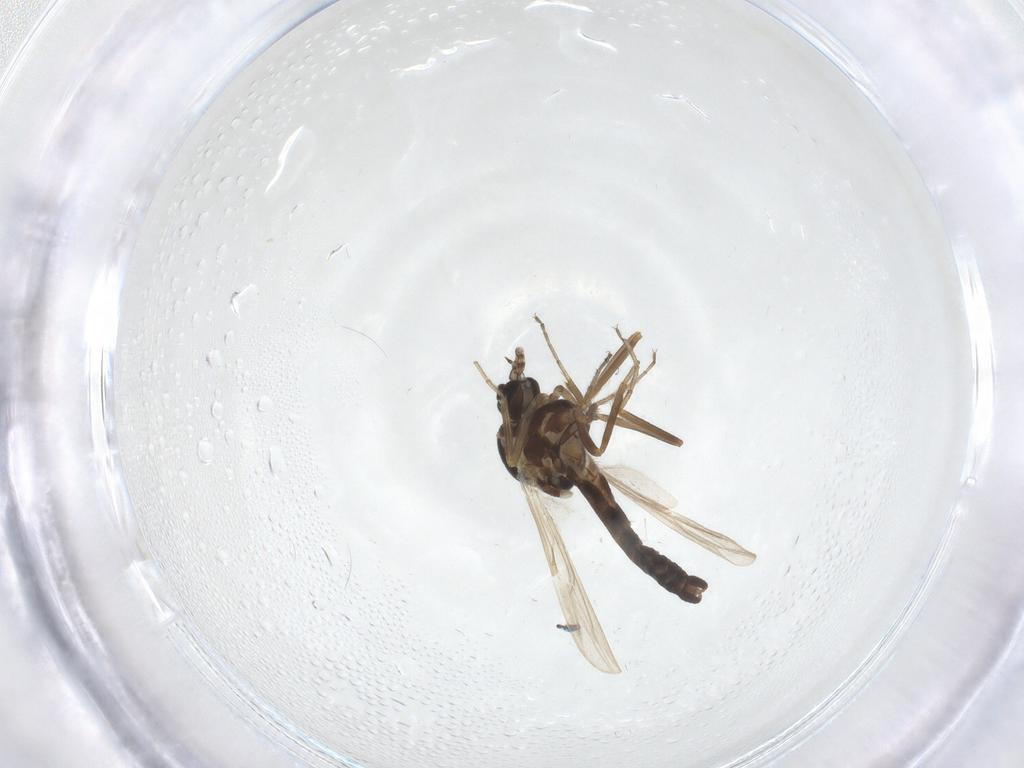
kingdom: Animalia
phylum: Arthropoda
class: Insecta
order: Diptera
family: Ceratopogonidae
